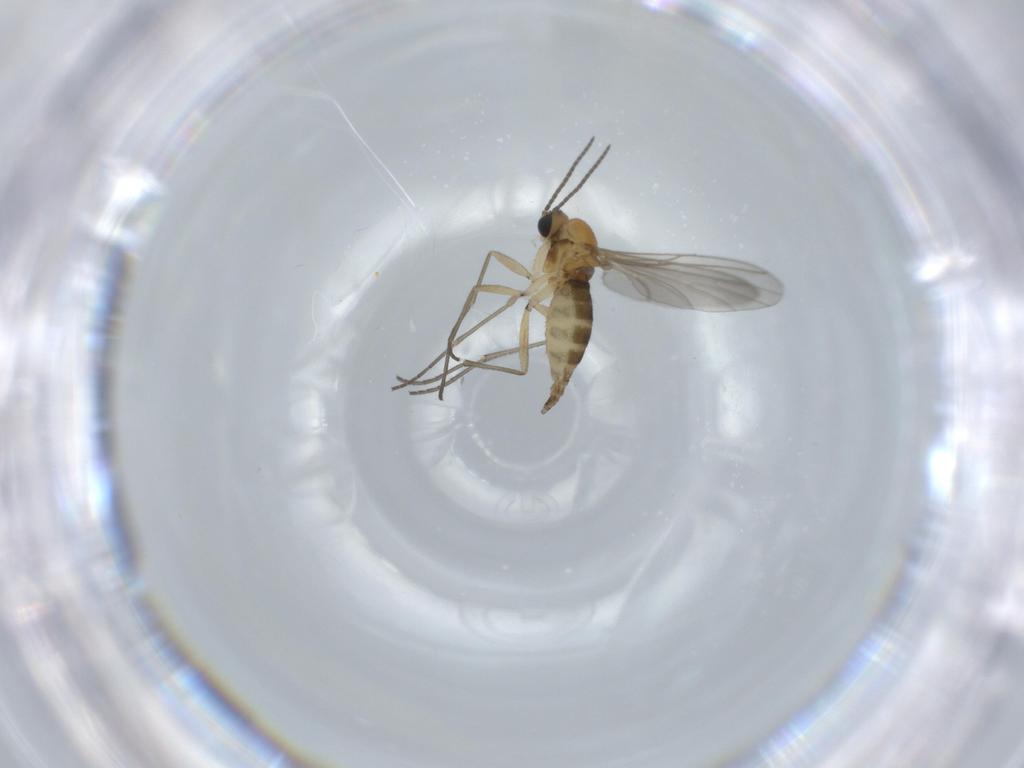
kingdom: Animalia
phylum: Arthropoda
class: Insecta
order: Diptera
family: Sciaridae
